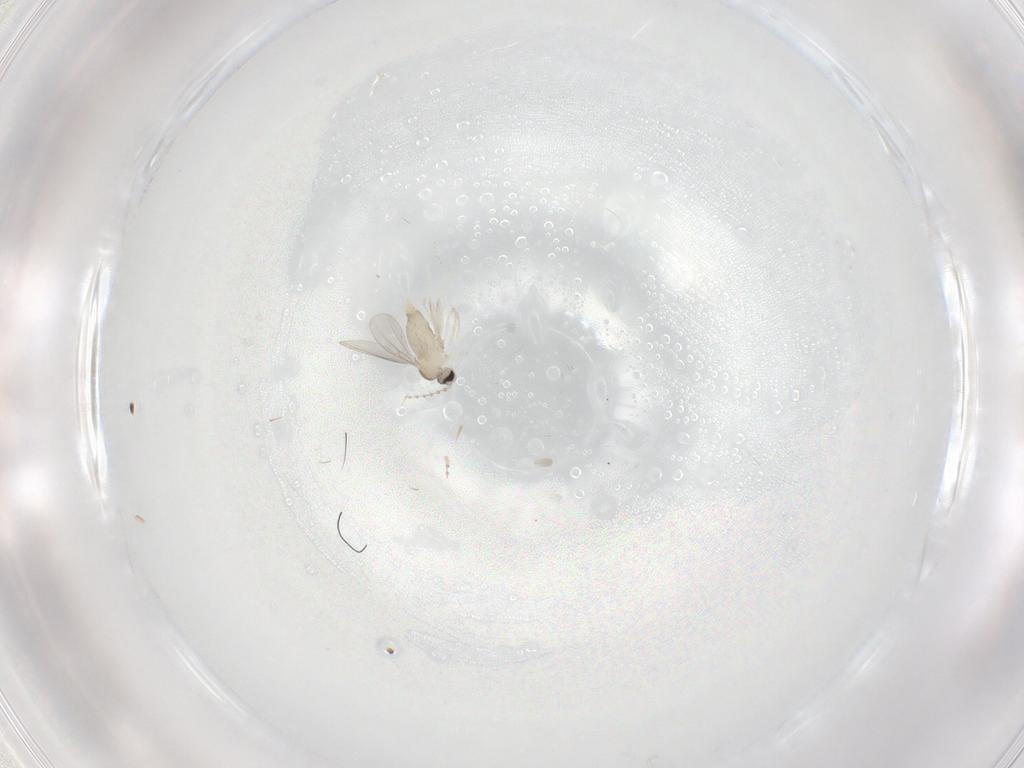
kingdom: Animalia
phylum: Arthropoda
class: Insecta
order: Diptera
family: Cecidomyiidae
